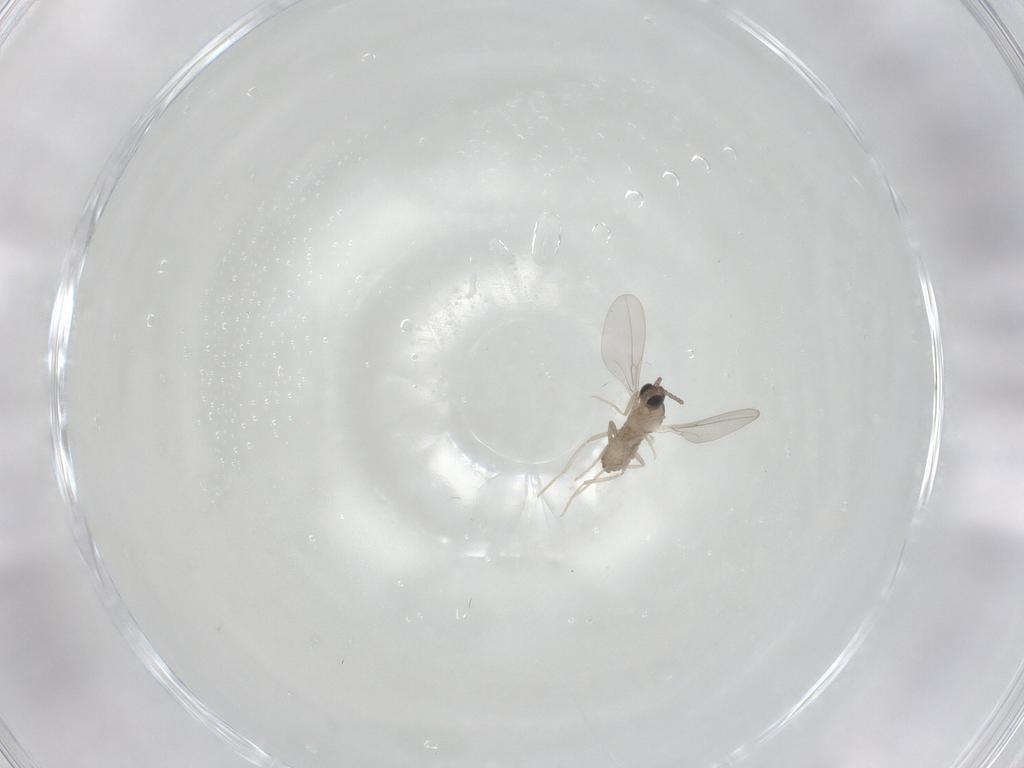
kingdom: Animalia
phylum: Arthropoda
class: Insecta
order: Diptera
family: Cecidomyiidae
